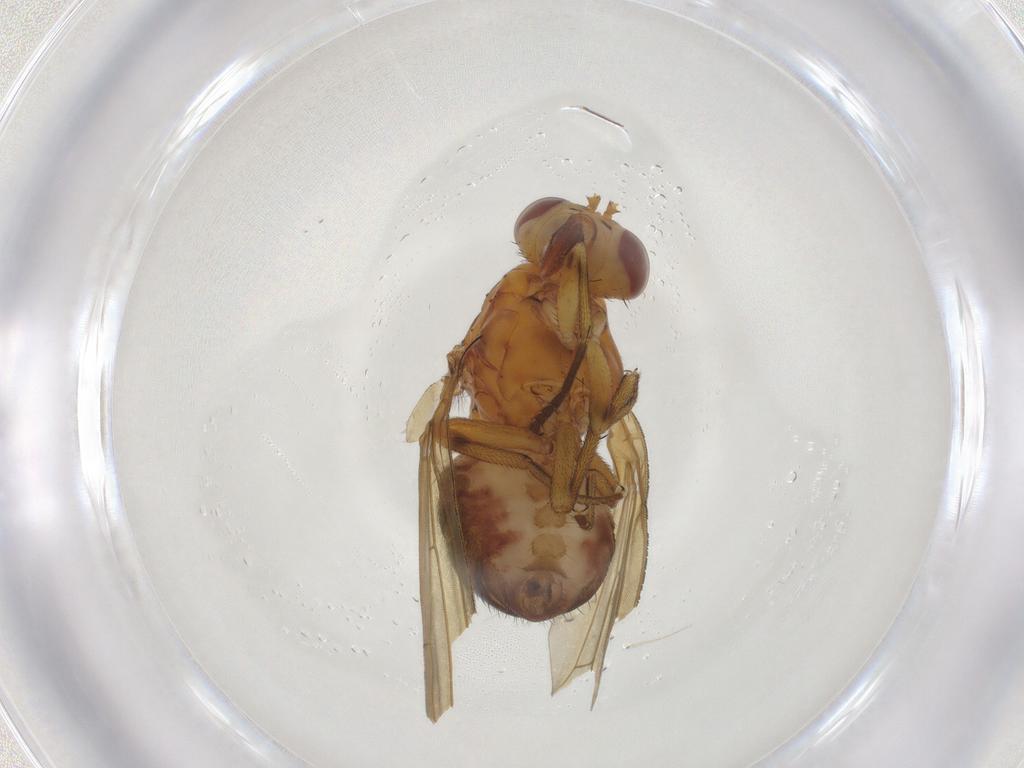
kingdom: Animalia
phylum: Arthropoda
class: Insecta
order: Diptera
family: Lauxaniidae
